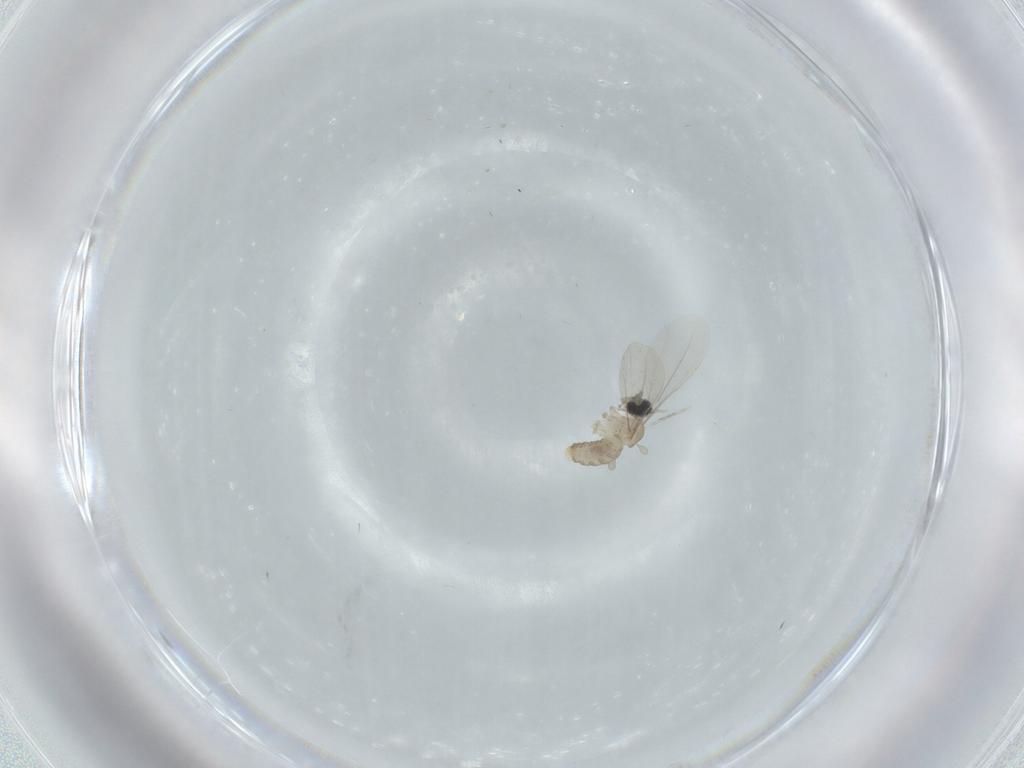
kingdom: Animalia
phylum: Arthropoda
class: Insecta
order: Diptera
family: Cecidomyiidae
